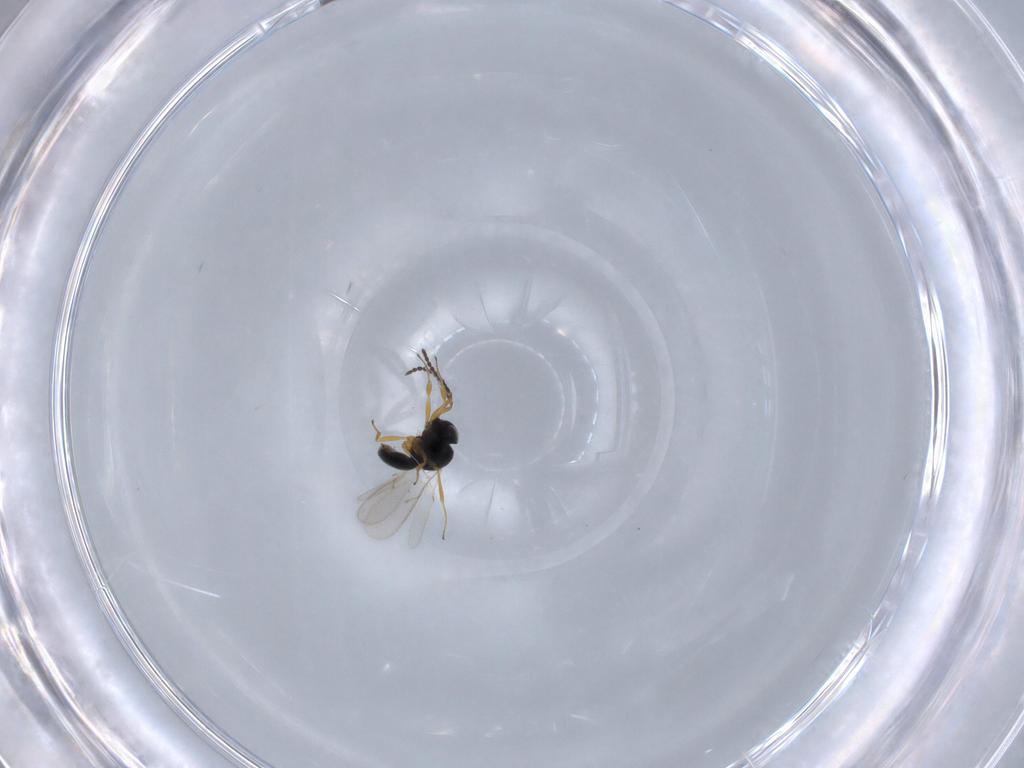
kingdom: Animalia
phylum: Arthropoda
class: Insecta
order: Hymenoptera
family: Scelionidae
